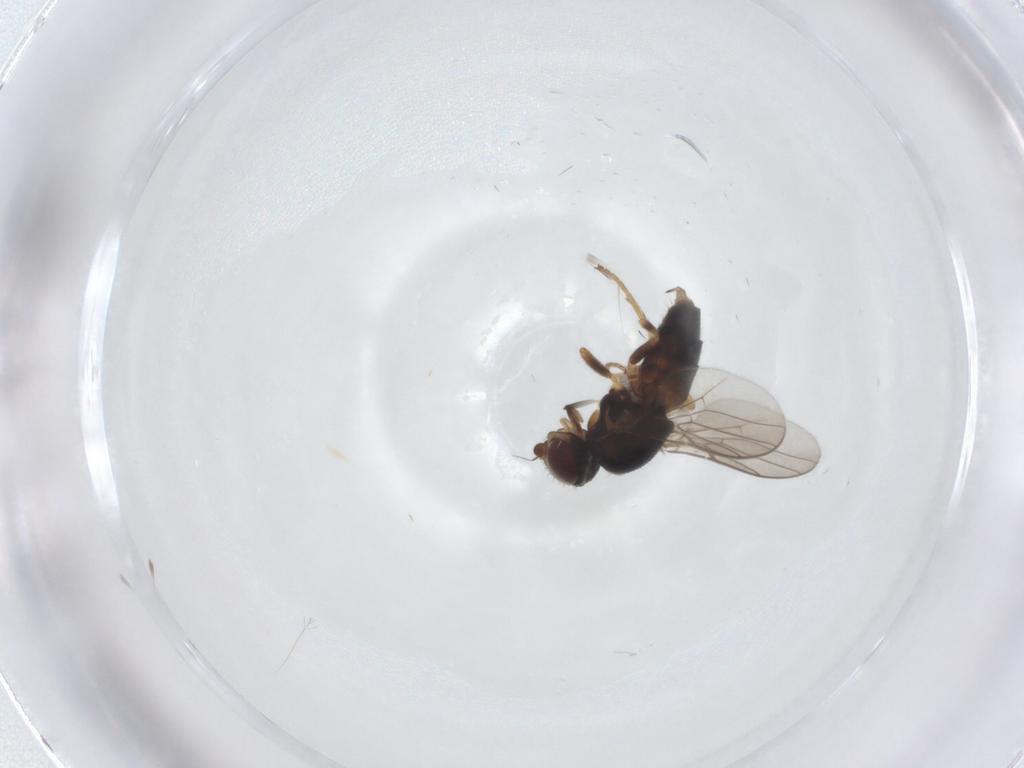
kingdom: Animalia
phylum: Arthropoda
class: Insecta
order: Diptera
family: Chloropidae
